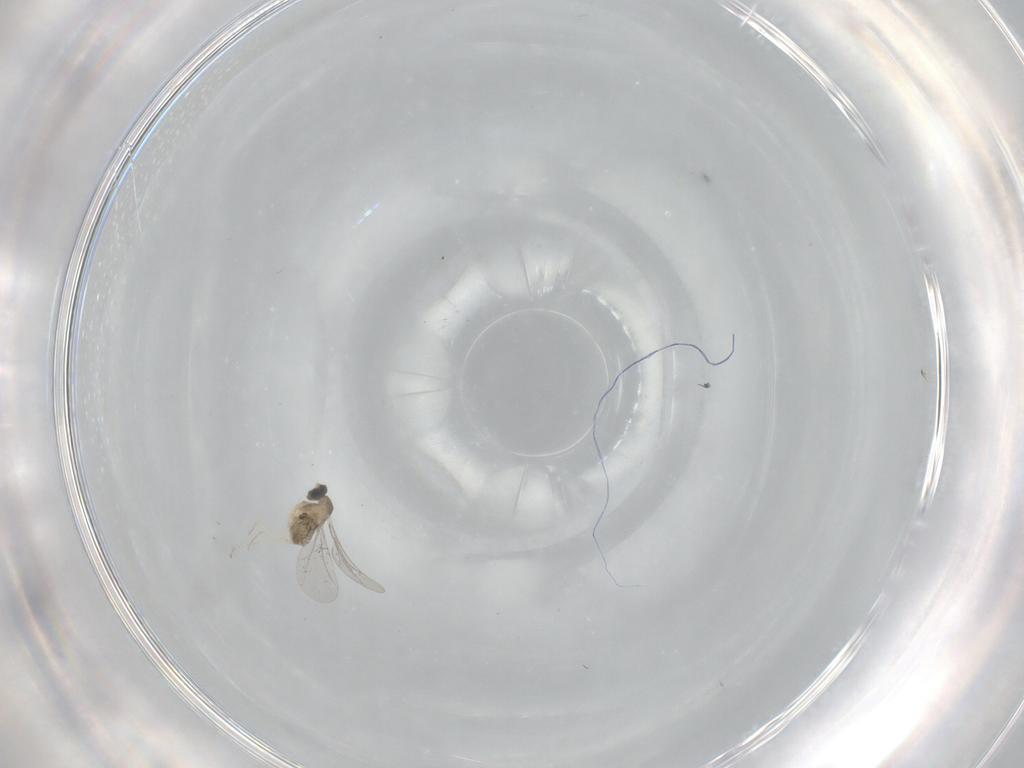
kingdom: Animalia
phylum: Arthropoda
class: Insecta
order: Diptera
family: Cecidomyiidae
